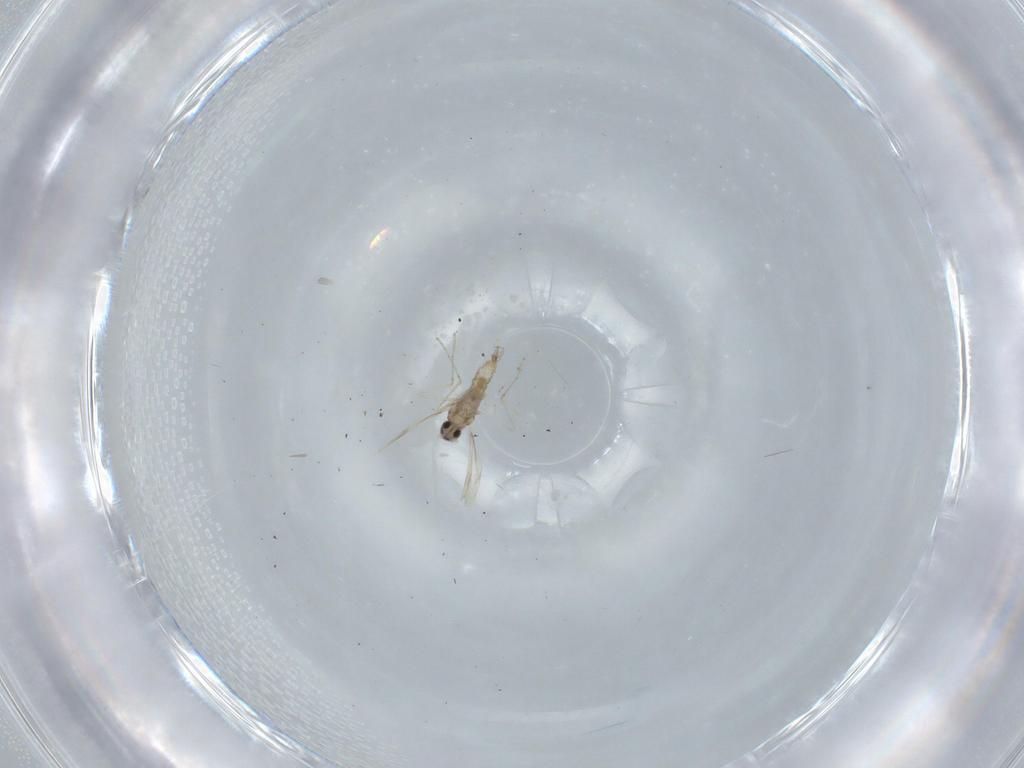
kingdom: Animalia
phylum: Arthropoda
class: Insecta
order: Diptera
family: Cecidomyiidae
